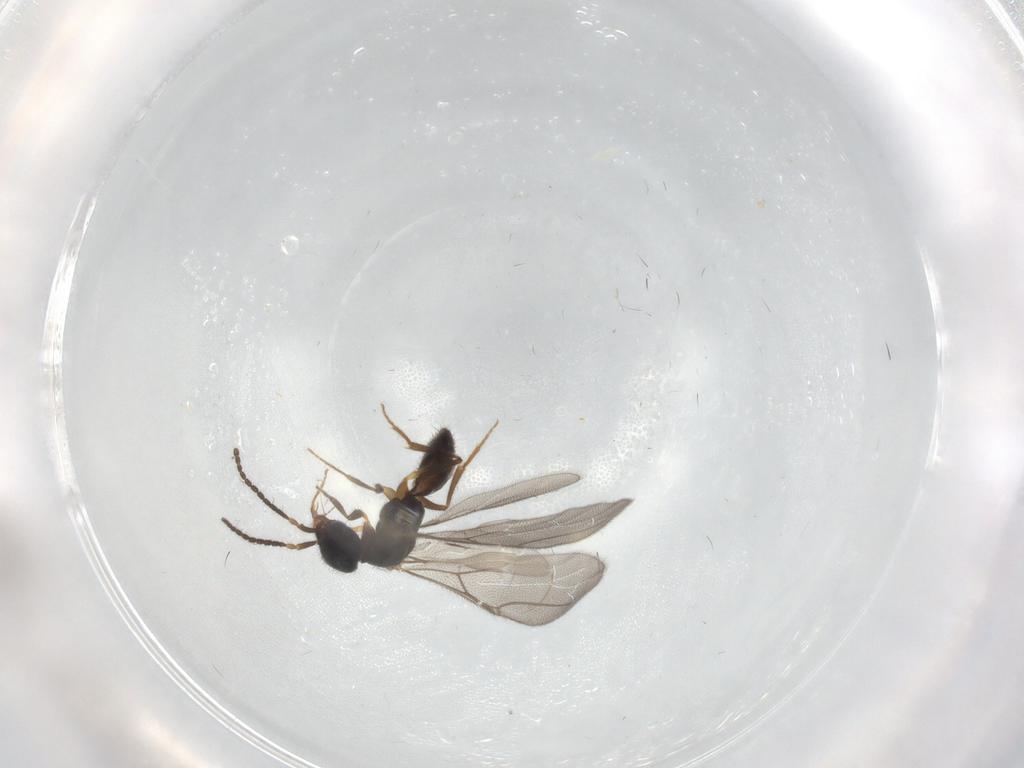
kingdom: Animalia
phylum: Arthropoda
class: Insecta
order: Hymenoptera
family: Bethylidae
